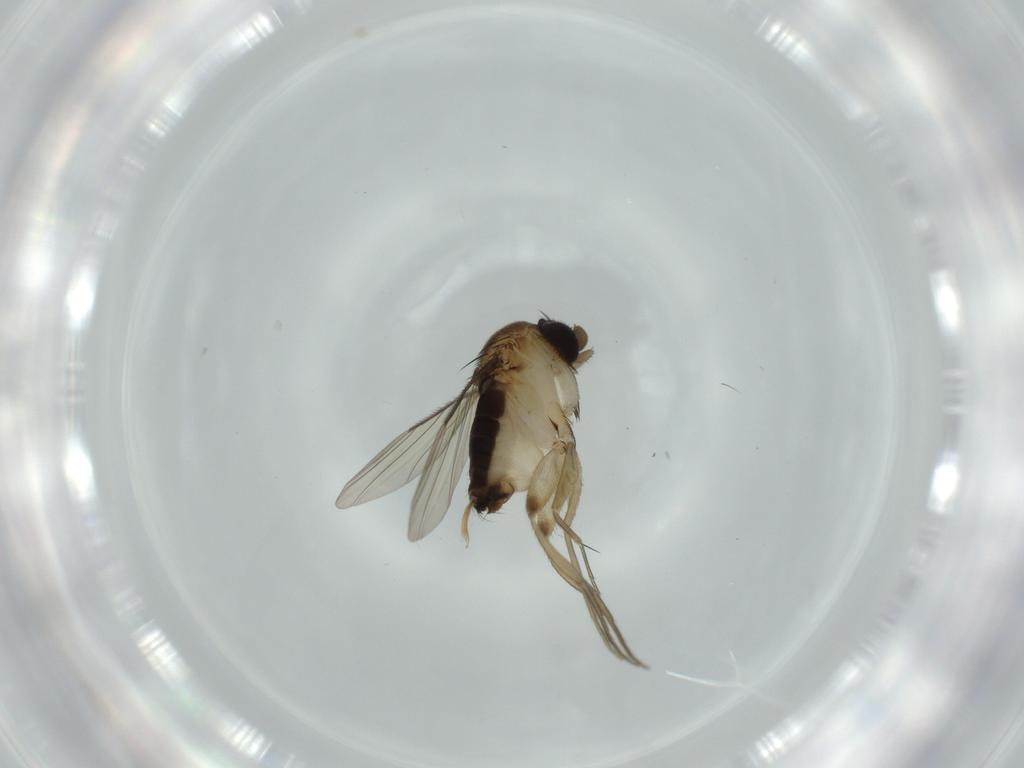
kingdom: Animalia
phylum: Arthropoda
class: Insecta
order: Diptera
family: Phoridae
